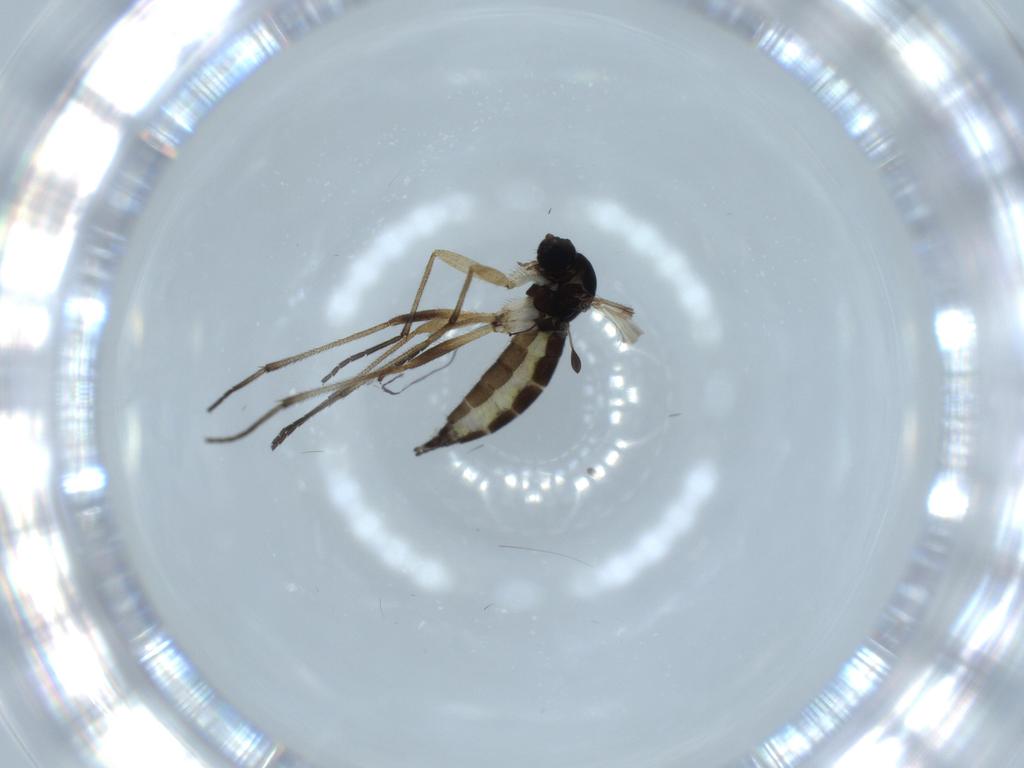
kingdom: Animalia
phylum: Arthropoda
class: Insecta
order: Diptera
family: Sciaridae
